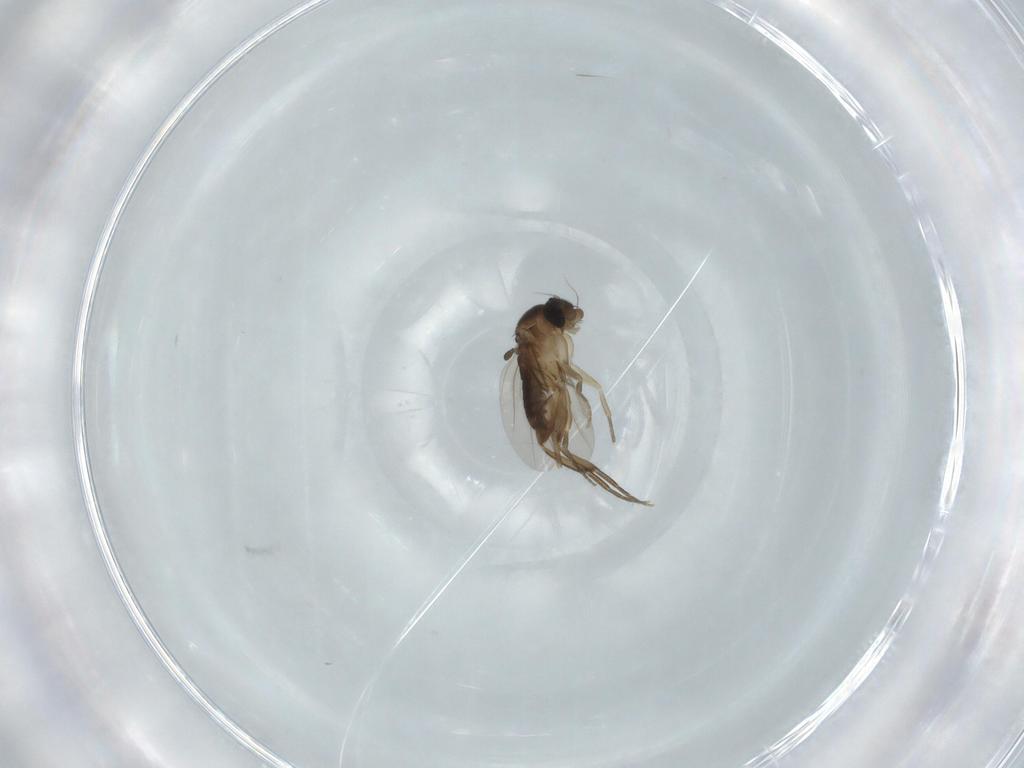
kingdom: Animalia
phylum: Arthropoda
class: Insecta
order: Diptera
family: Phoridae
